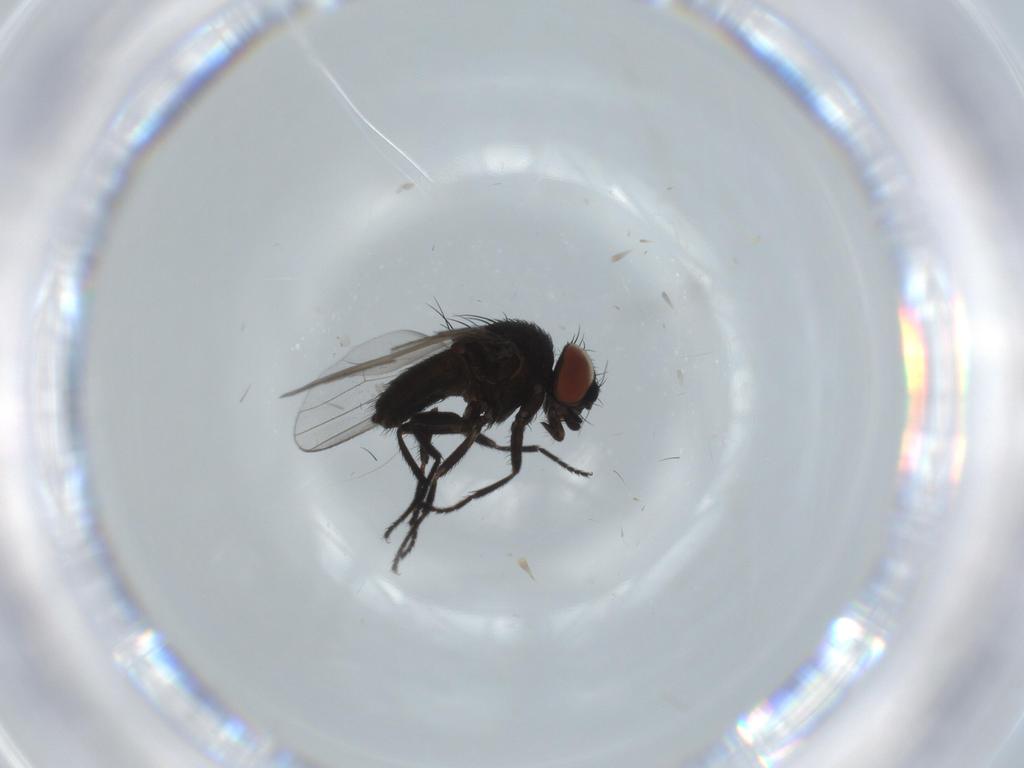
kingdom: Animalia
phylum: Arthropoda
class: Insecta
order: Diptera
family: Milichiidae
